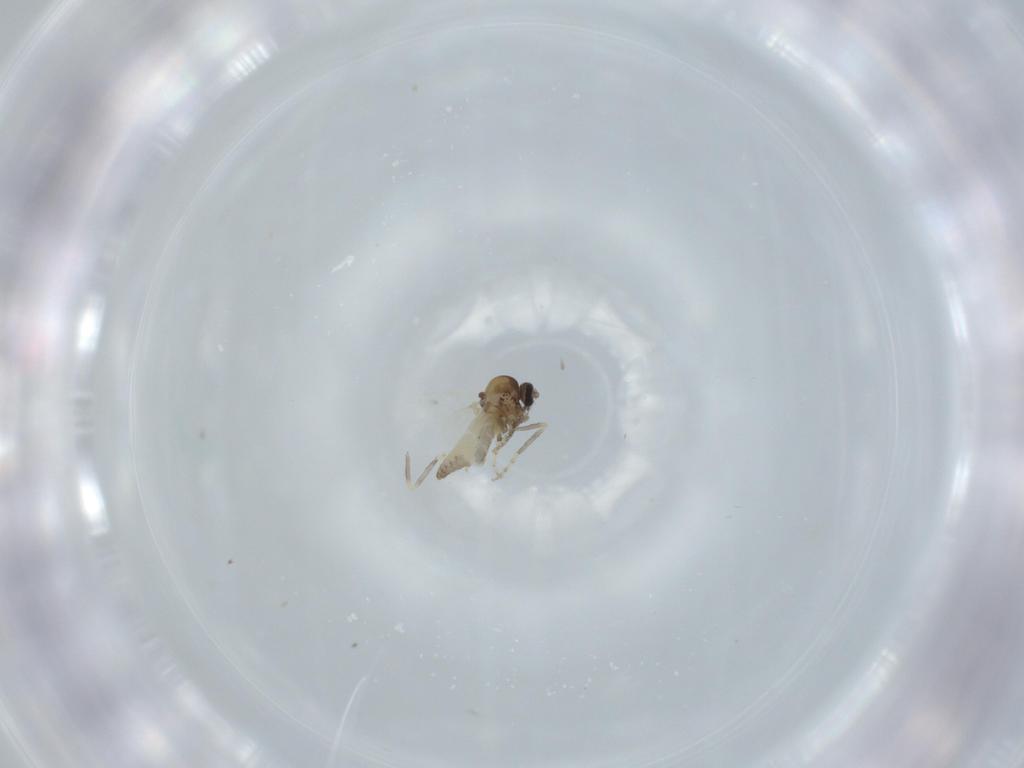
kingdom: Animalia
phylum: Arthropoda
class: Insecta
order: Diptera
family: Ceratopogonidae
